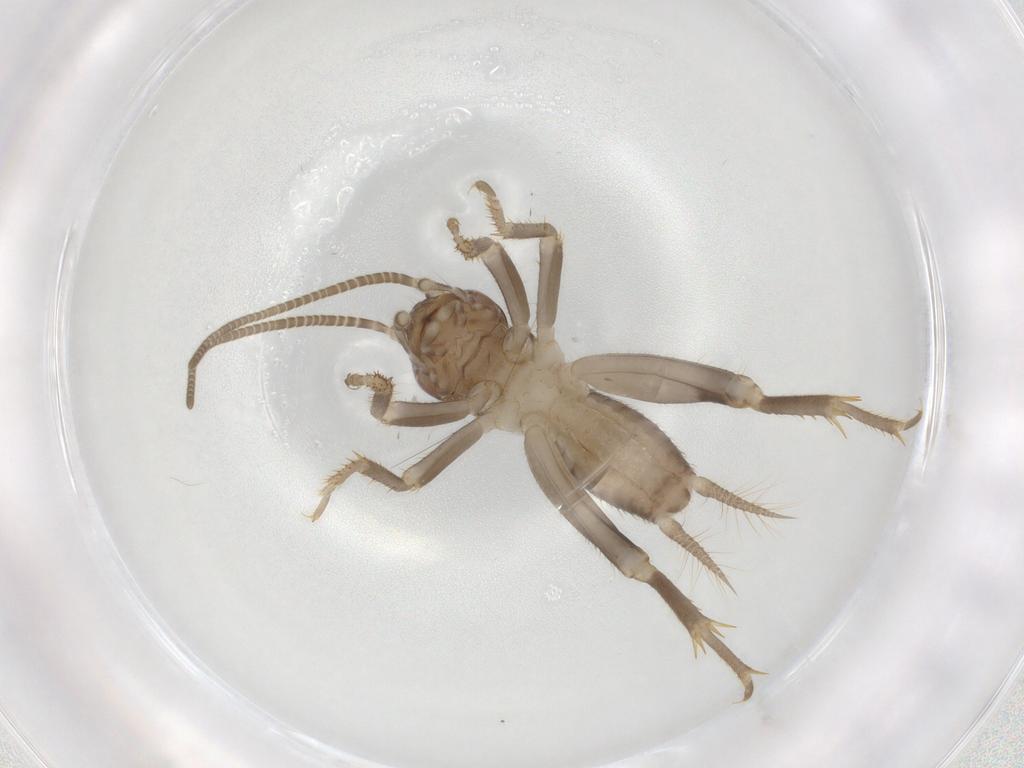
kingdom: Animalia
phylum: Arthropoda
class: Insecta
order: Orthoptera
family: Gryllidae
